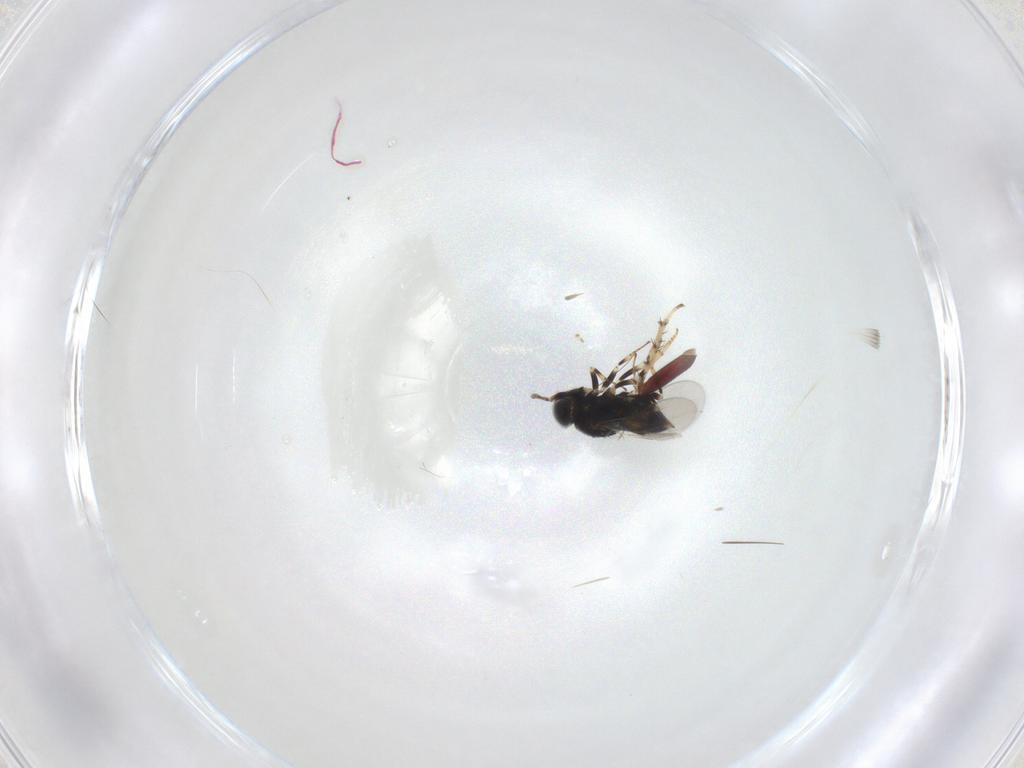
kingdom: Animalia
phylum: Arthropoda
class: Insecta
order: Hemiptera
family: Miridae
